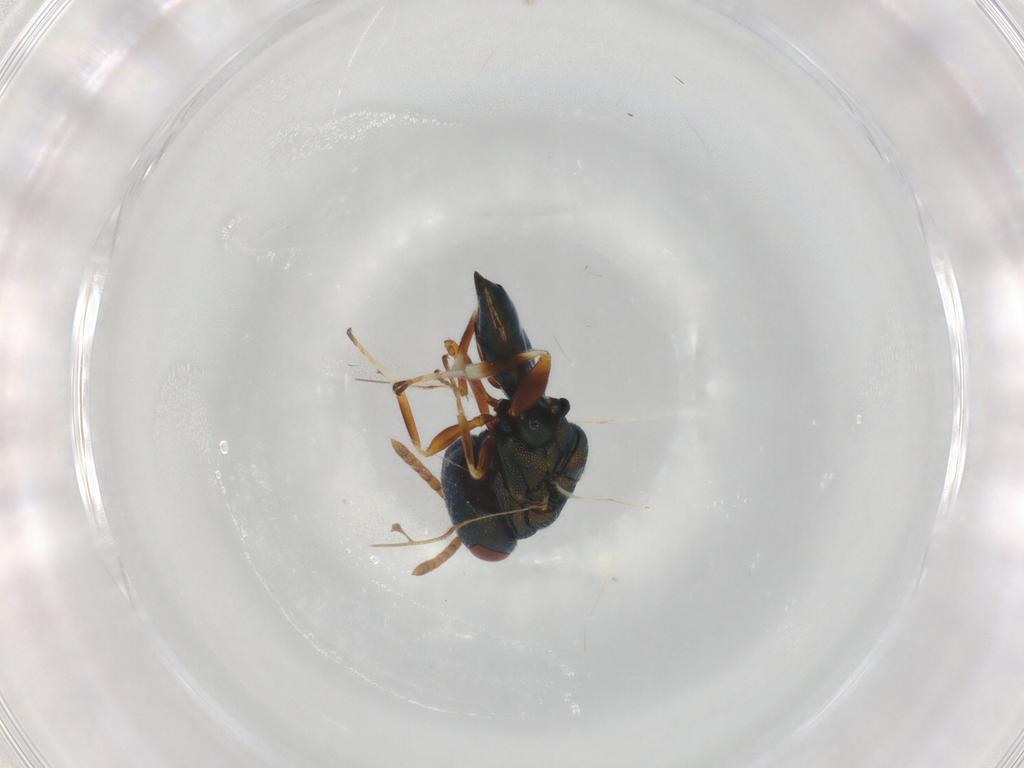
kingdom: Animalia
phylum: Arthropoda
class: Insecta
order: Hymenoptera
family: Pteromalidae
